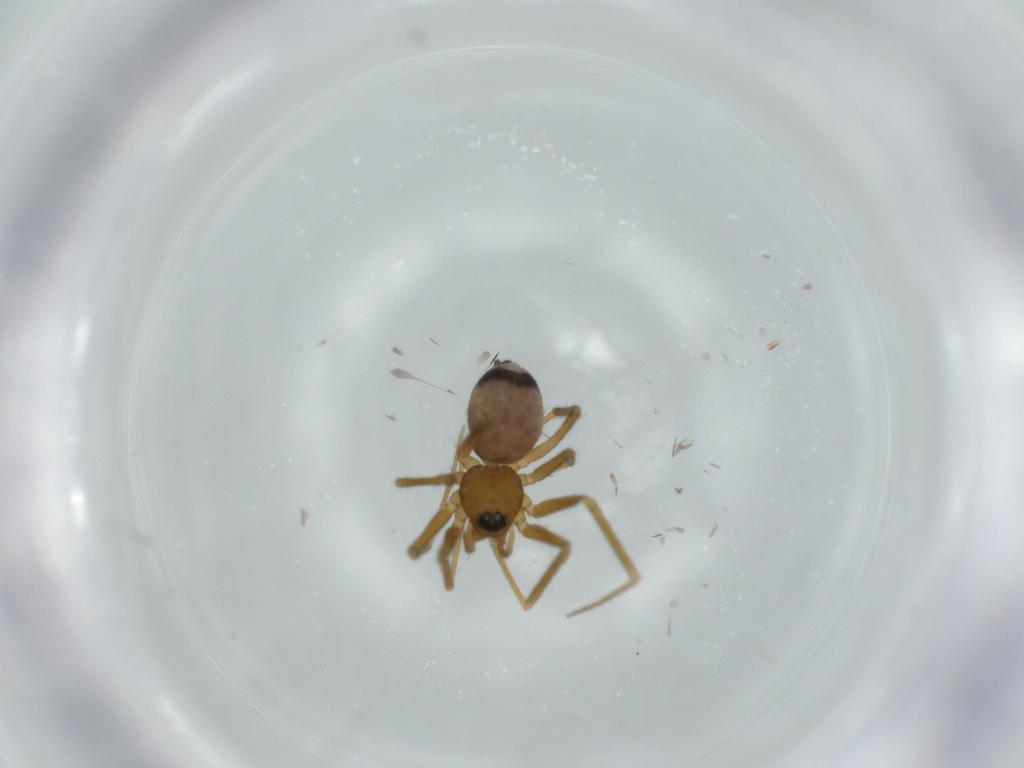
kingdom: Animalia
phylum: Arthropoda
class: Arachnida
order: Araneae
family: Linyphiidae
